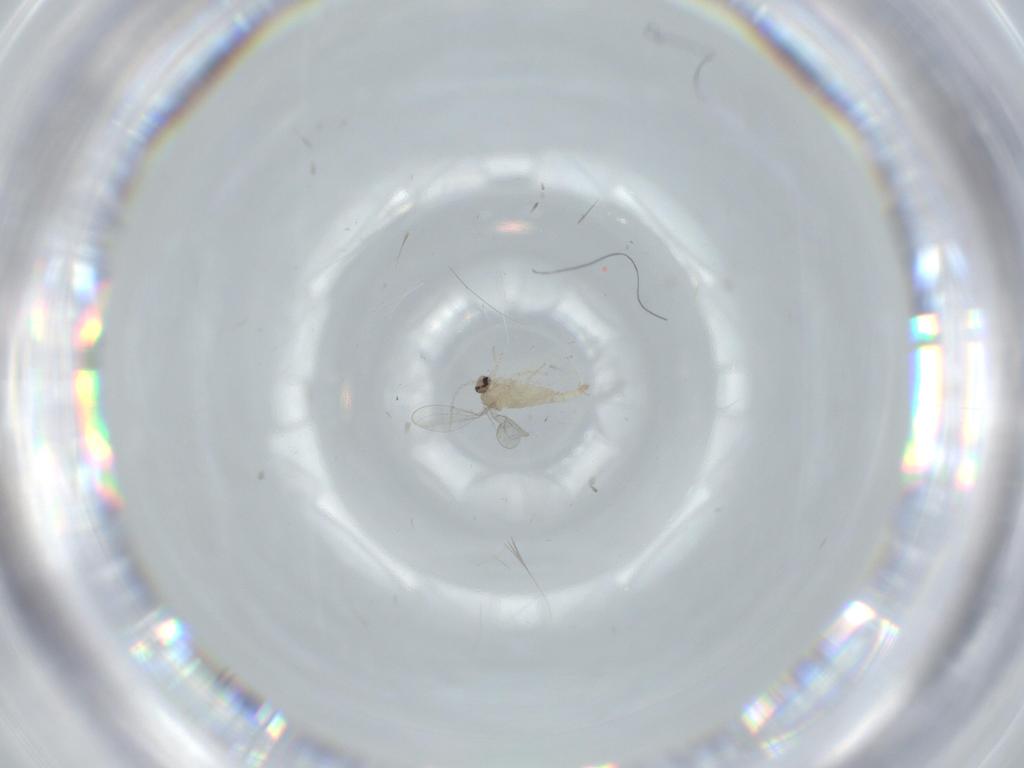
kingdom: Animalia
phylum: Arthropoda
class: Insecta
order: Diptera
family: Cecidomyiidae
